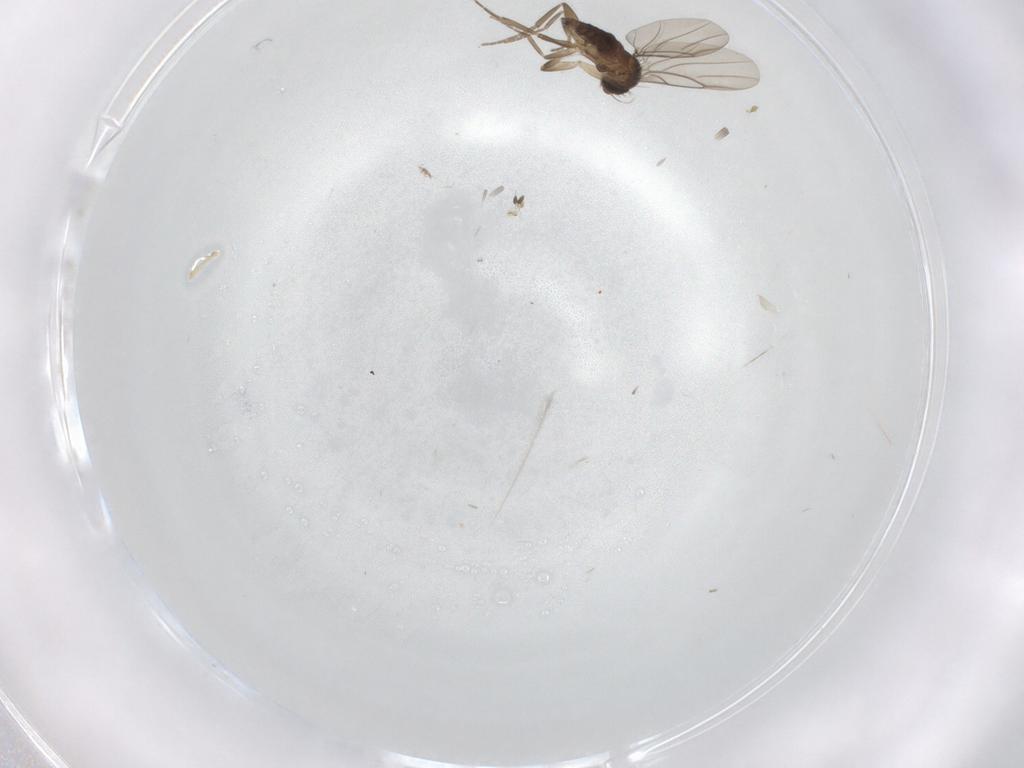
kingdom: Animalia
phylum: Arthropoda
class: Insecta
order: Diptera
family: Phoridae
